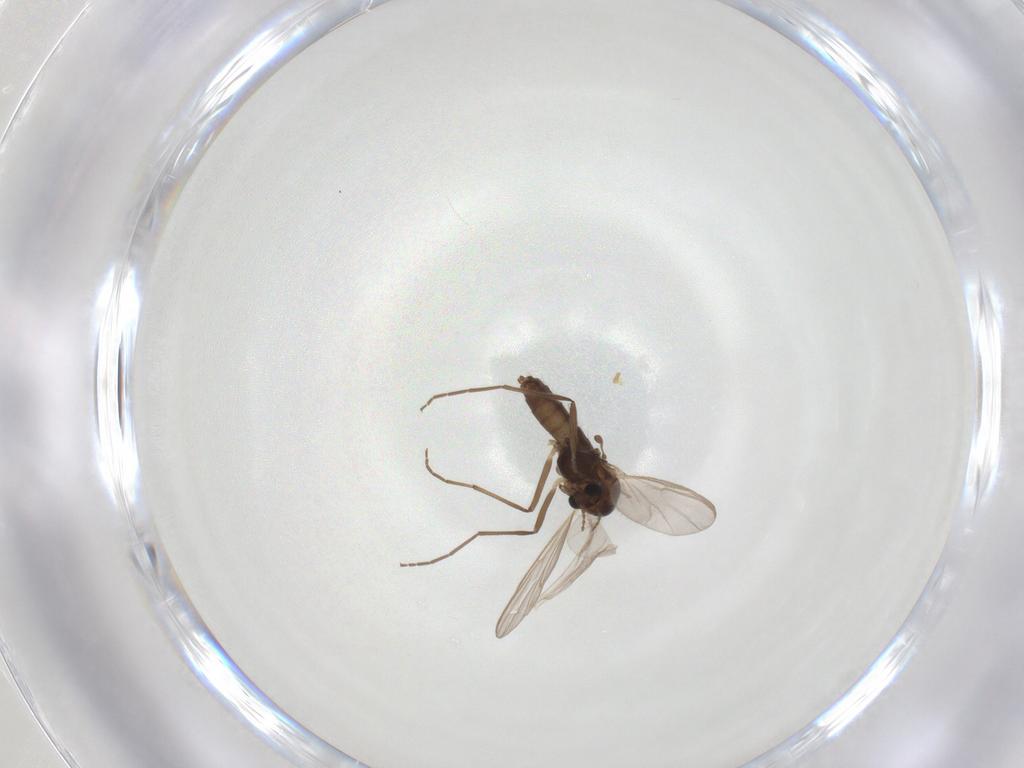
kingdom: Animalia
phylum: Arthropoda
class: Insecta
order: Diptera
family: Chironomidae
